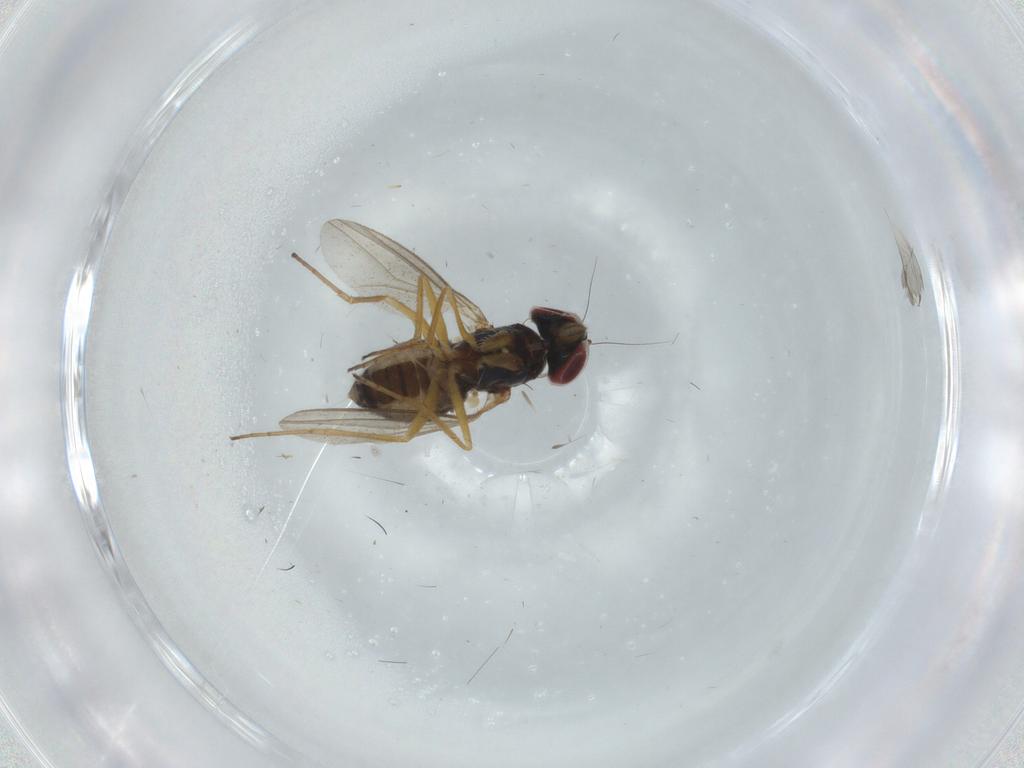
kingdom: Animalia
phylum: Arthropoda
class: Insecta
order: Diptera
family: Dolichopodidae
